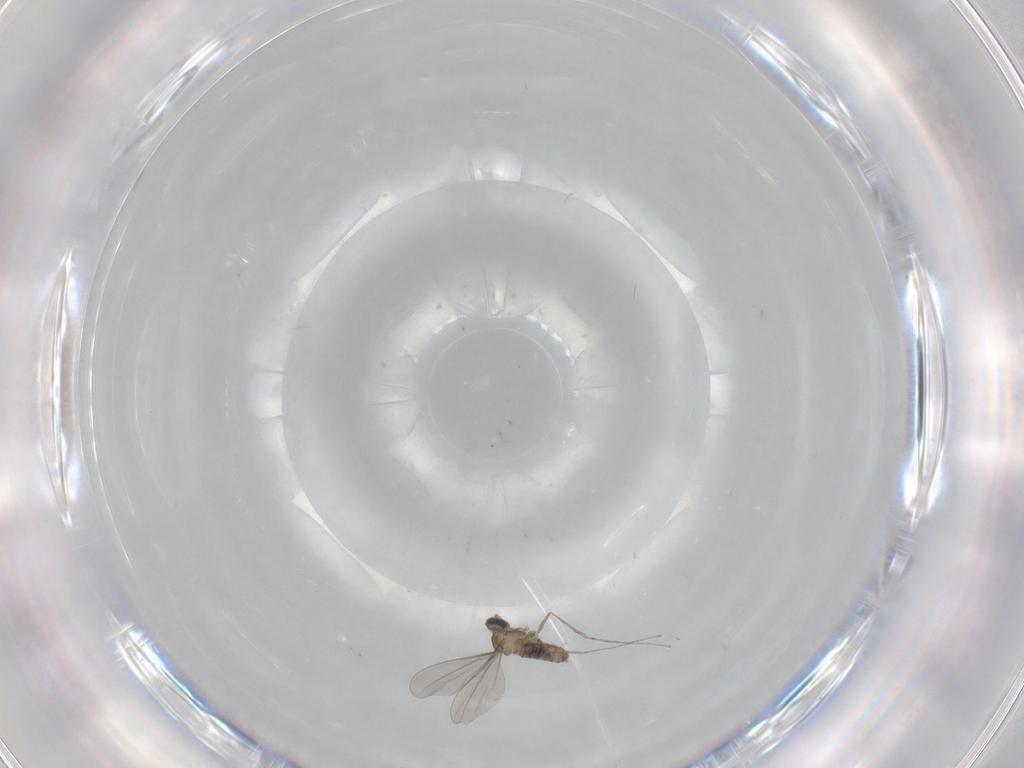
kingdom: Animalia
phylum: Arthropoda
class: Insecta
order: Diptera
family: Cecidomyiidae
